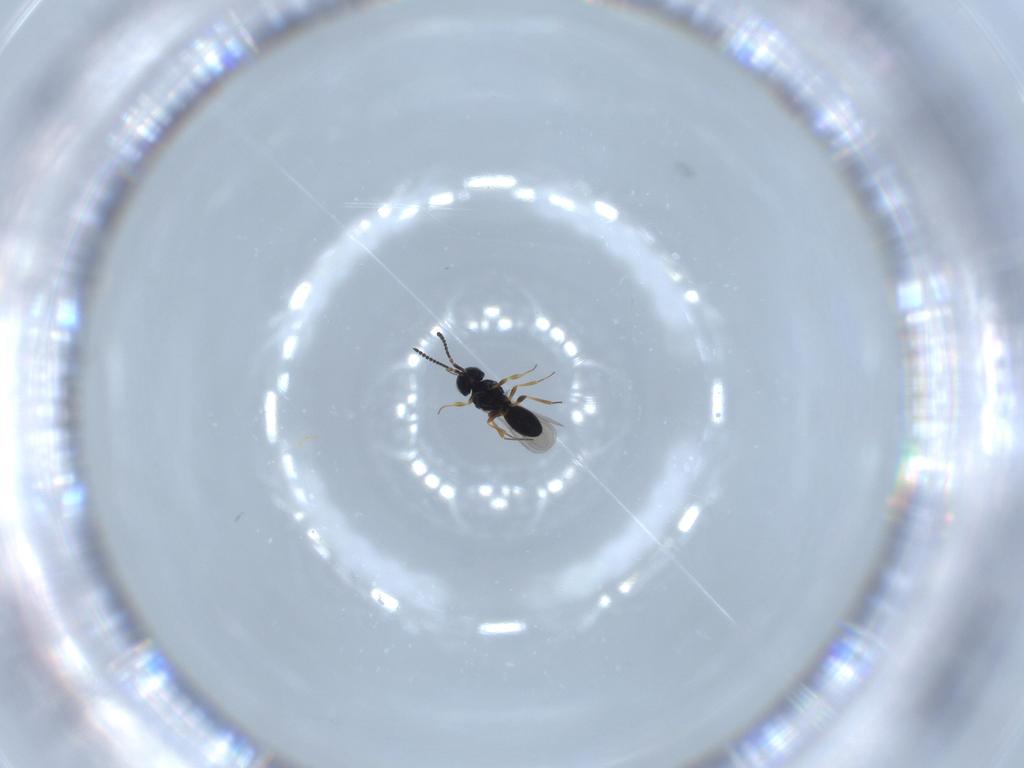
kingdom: Animalia
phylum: Arthropoda
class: Insecta
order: Hymenoptera
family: Scelionidae
